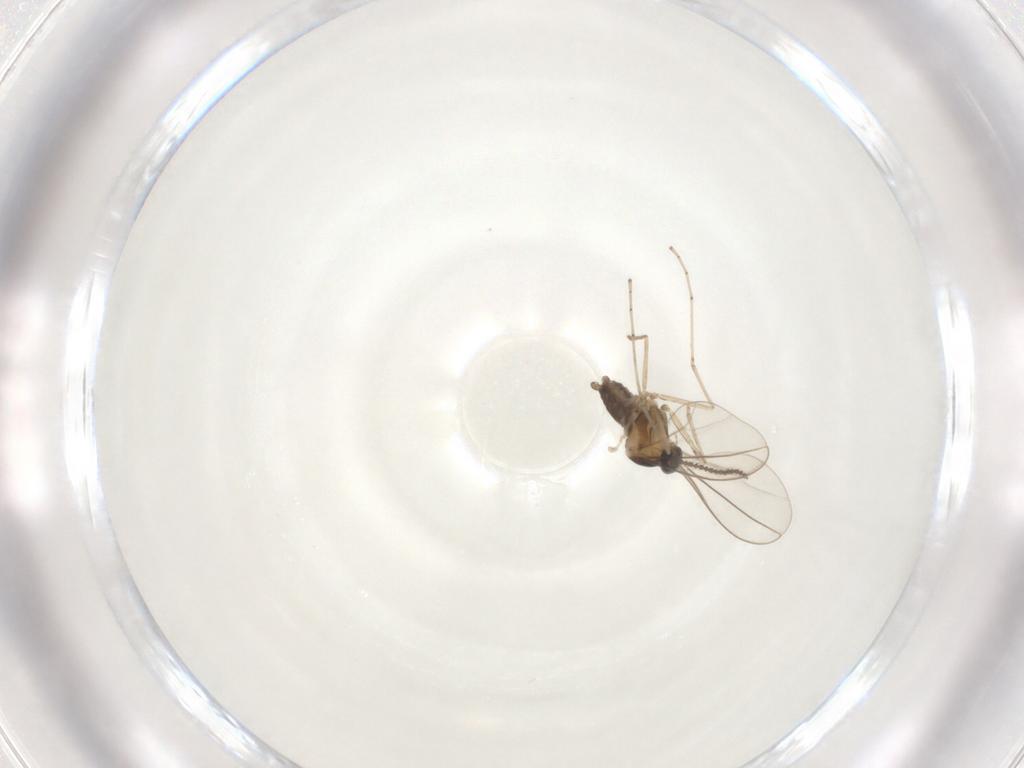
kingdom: Animalia
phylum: Arthropoda
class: Insecta
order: Diptera
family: Cecidomyiidae
